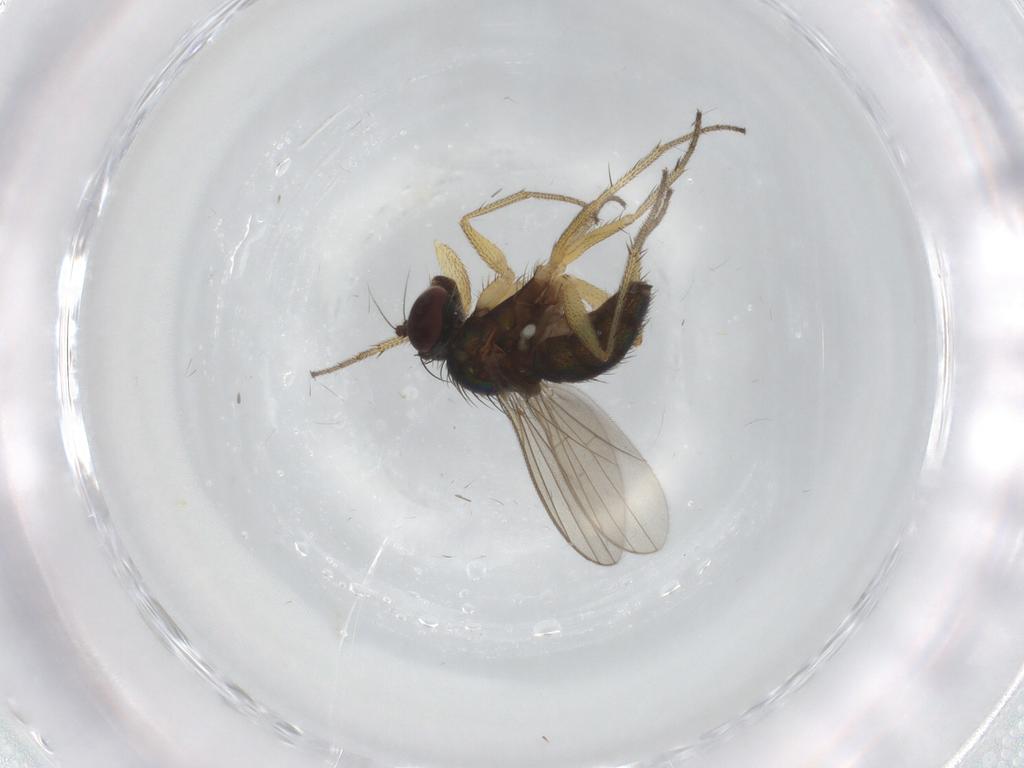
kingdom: Animalia
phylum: Arthropoda
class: Insecta
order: Diptera
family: Dolichopodidae
